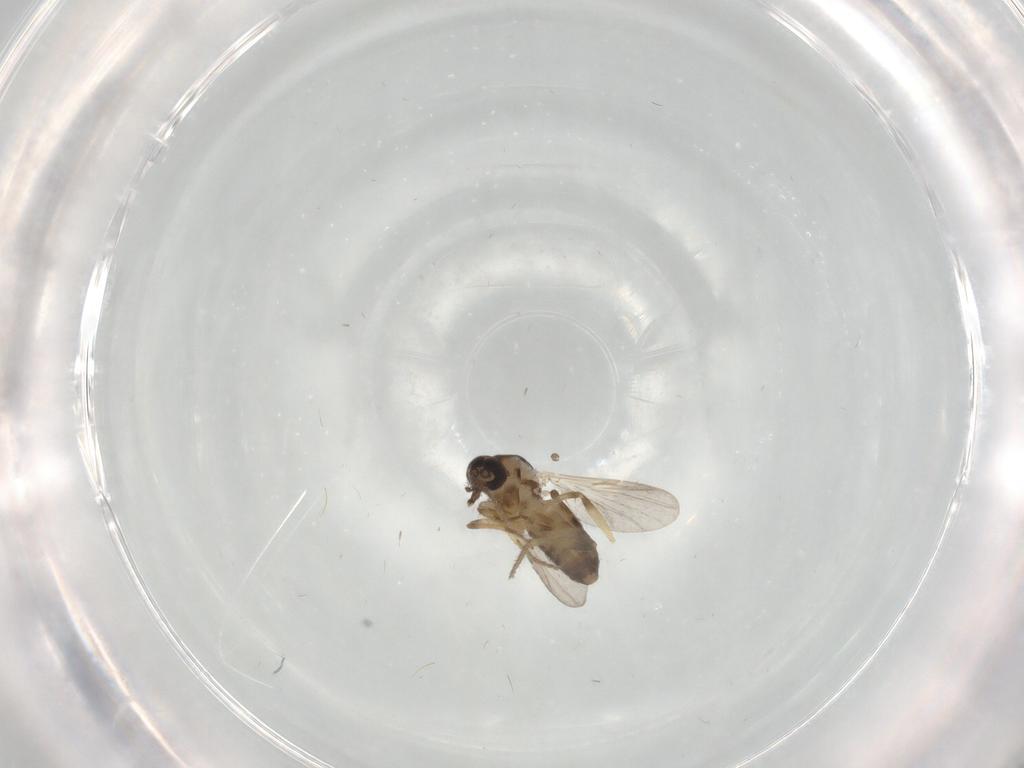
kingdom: Animalia
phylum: Arthropoda
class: Insecta
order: Diptera
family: Ceratopogonidae
